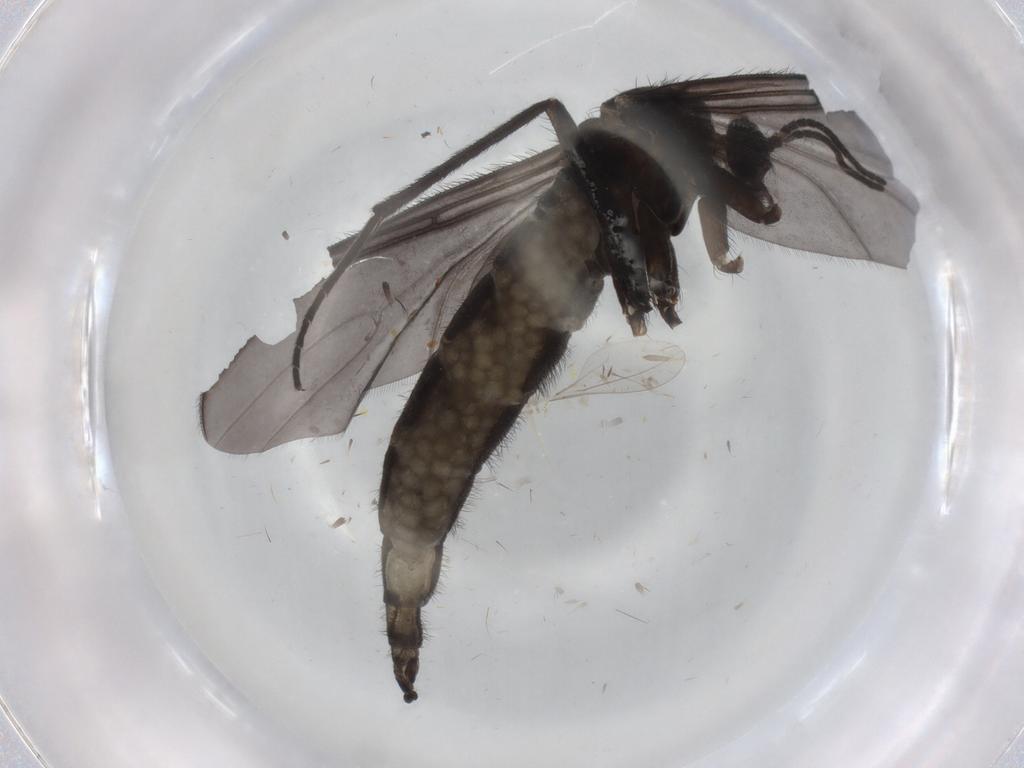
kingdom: Animalia
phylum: Arthropoda
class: Insecta
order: Diptera
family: Sciaridae
